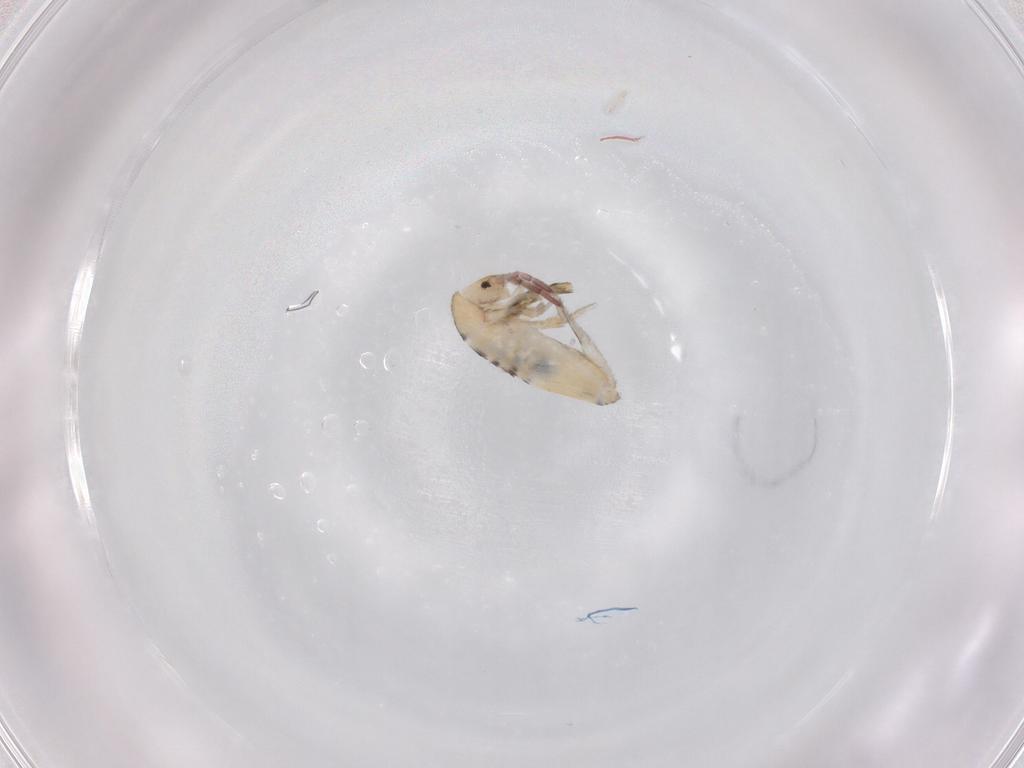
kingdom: Animalia
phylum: Arthropoda
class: Collembola
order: Entomobryomorpha
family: Entomobryidae
